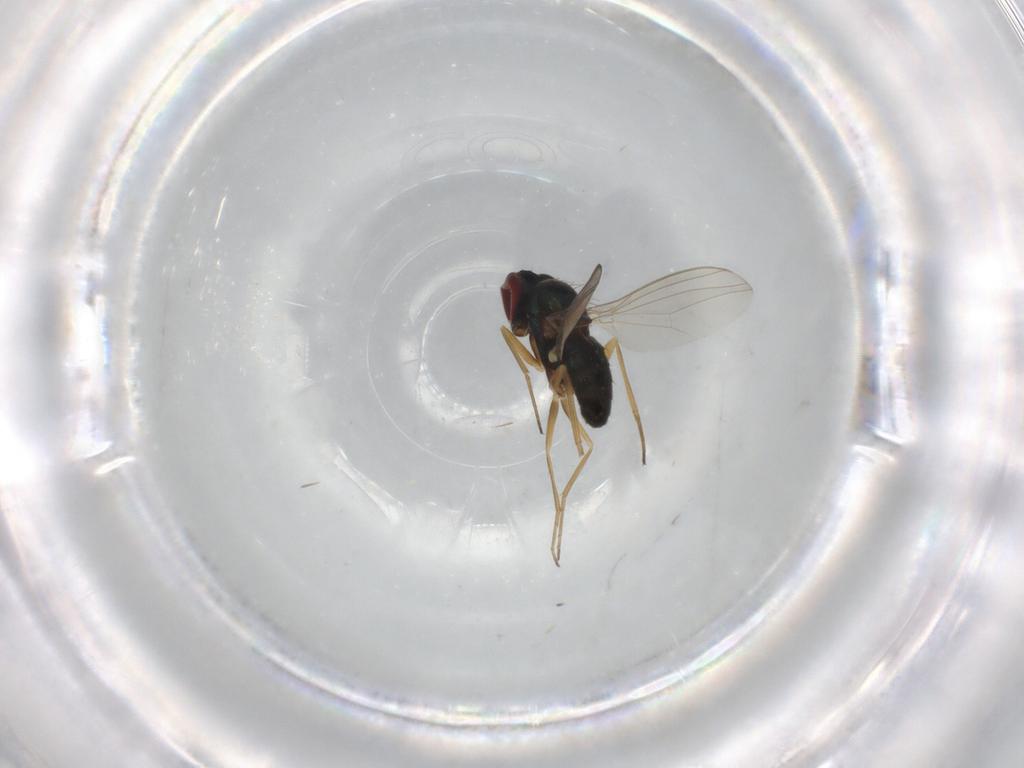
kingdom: Animalia
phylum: Arthropoda
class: Insecta
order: Diptera
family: Dolichopodidae
